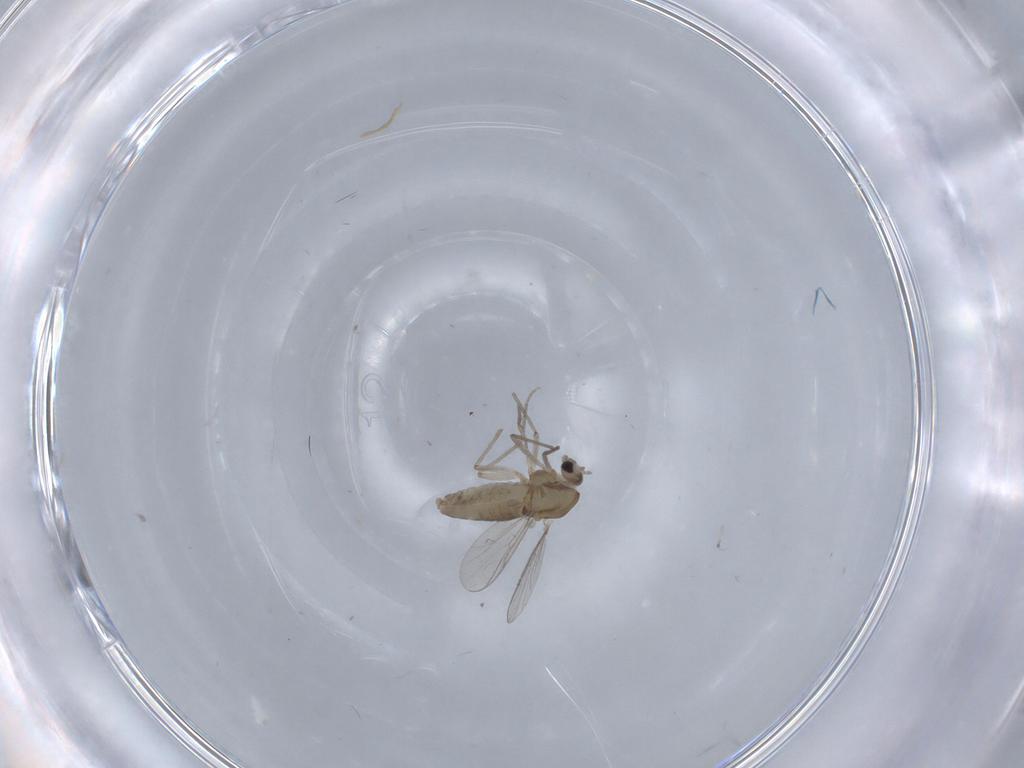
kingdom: Animalia
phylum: Arthropoda
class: Insecta
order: Diptera
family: Chironomidae
